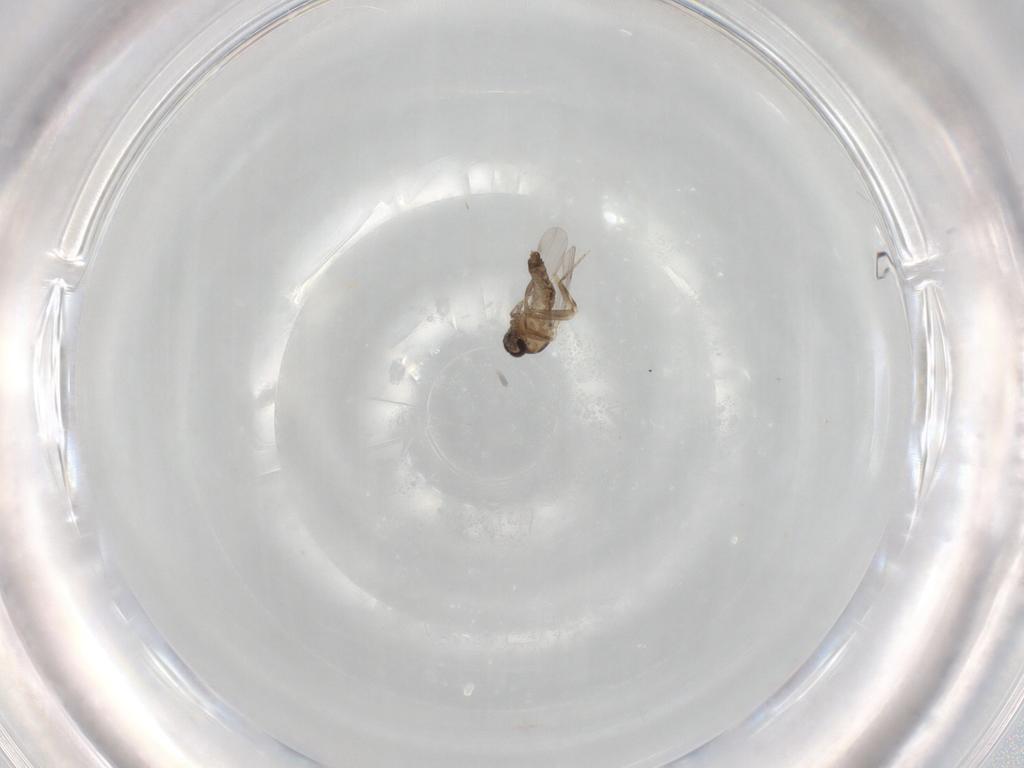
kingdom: Animalia
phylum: Arthropoda
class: Insecta
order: Diptera
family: Ceratopogonidae
